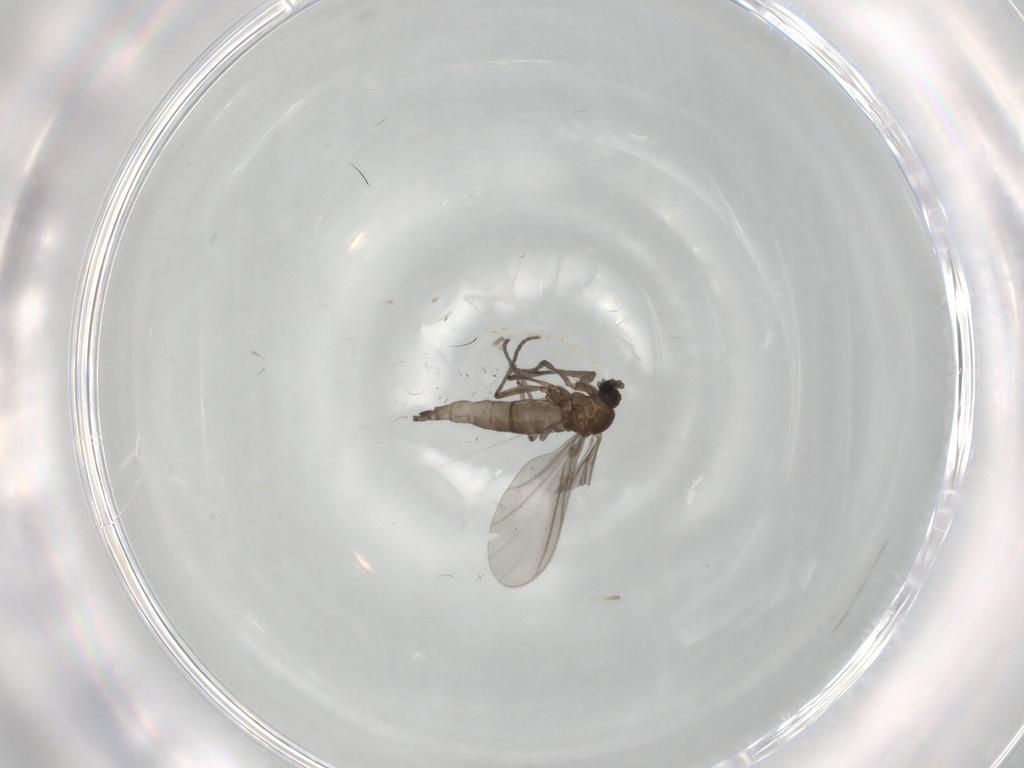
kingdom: Animalia
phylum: Arthropoda
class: Insecta
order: Diptera
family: Sciaridae
